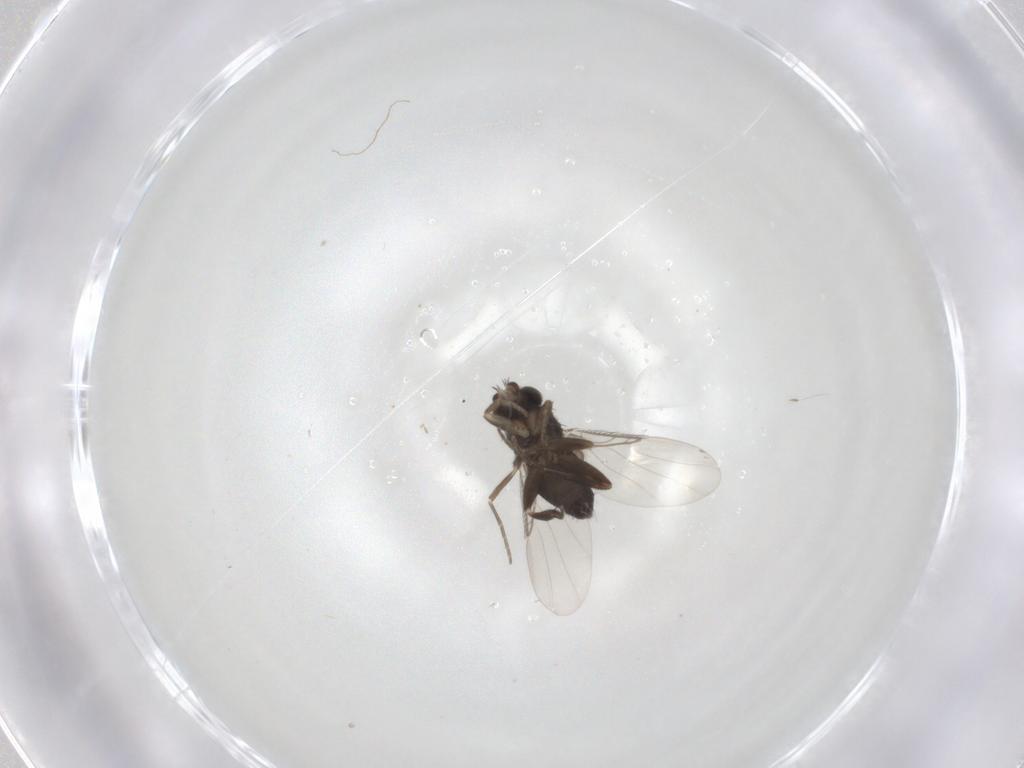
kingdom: Animalia
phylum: Arthropoda
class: Insecta
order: Diptera
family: Phoridae
